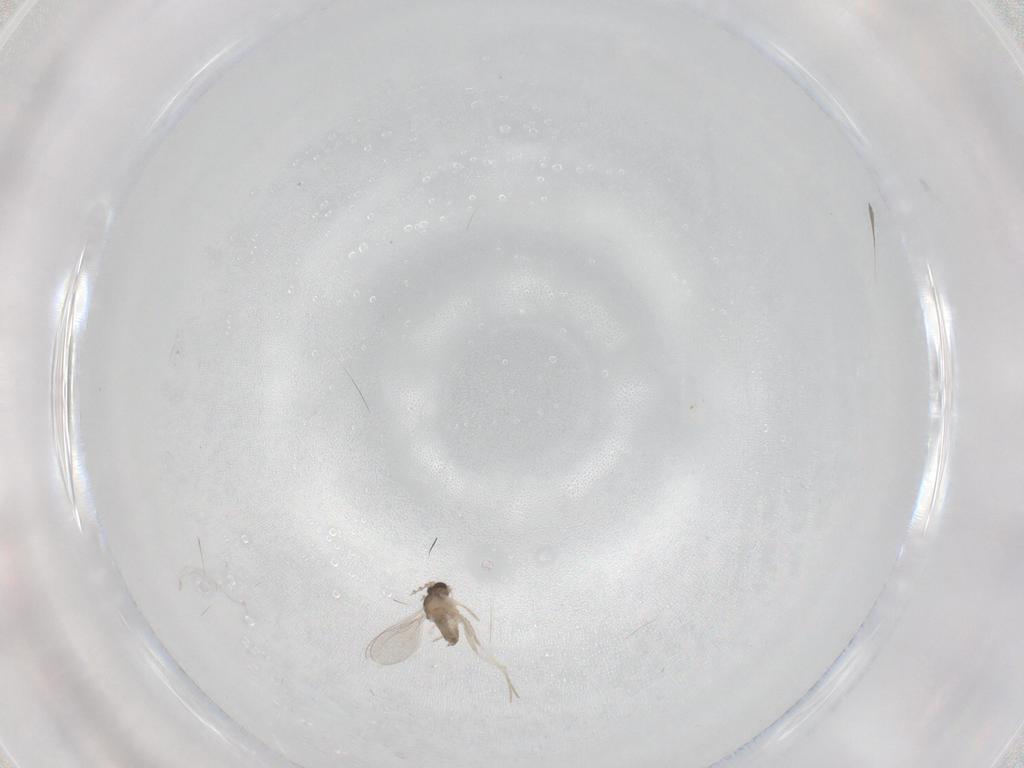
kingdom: Animalia
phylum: Arthropoda
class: Insecta
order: Diptera
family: Cecidomyiidae
